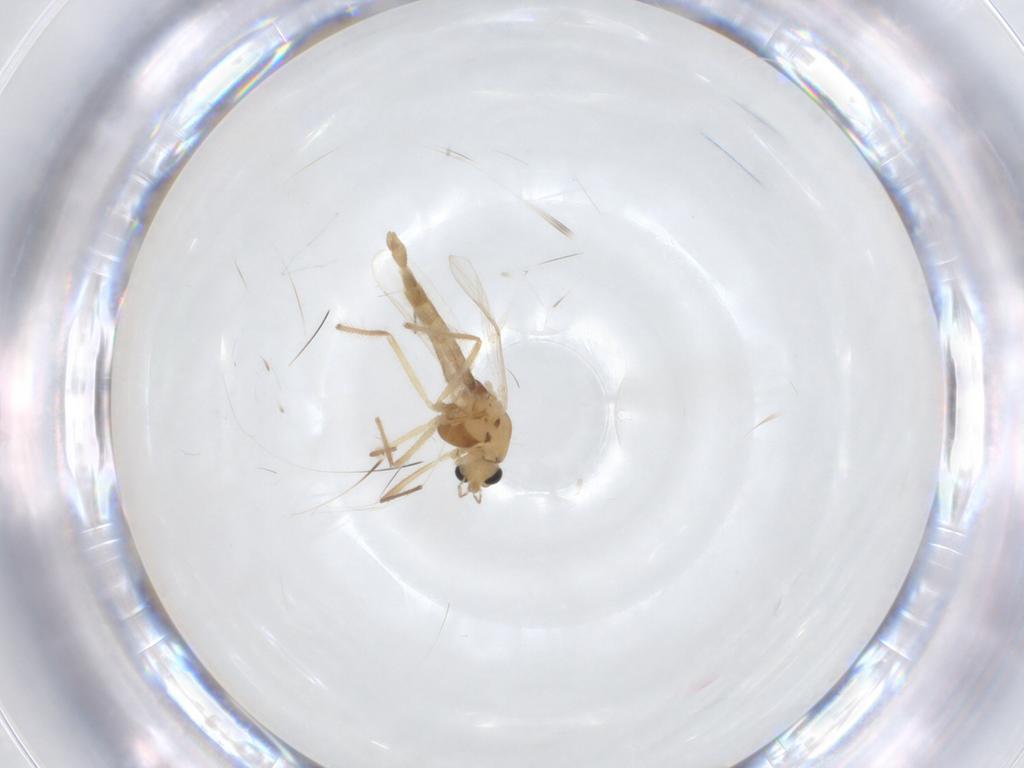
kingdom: Animalia
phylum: Arthropoda
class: Insecta
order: Diptera
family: Chironomidae
